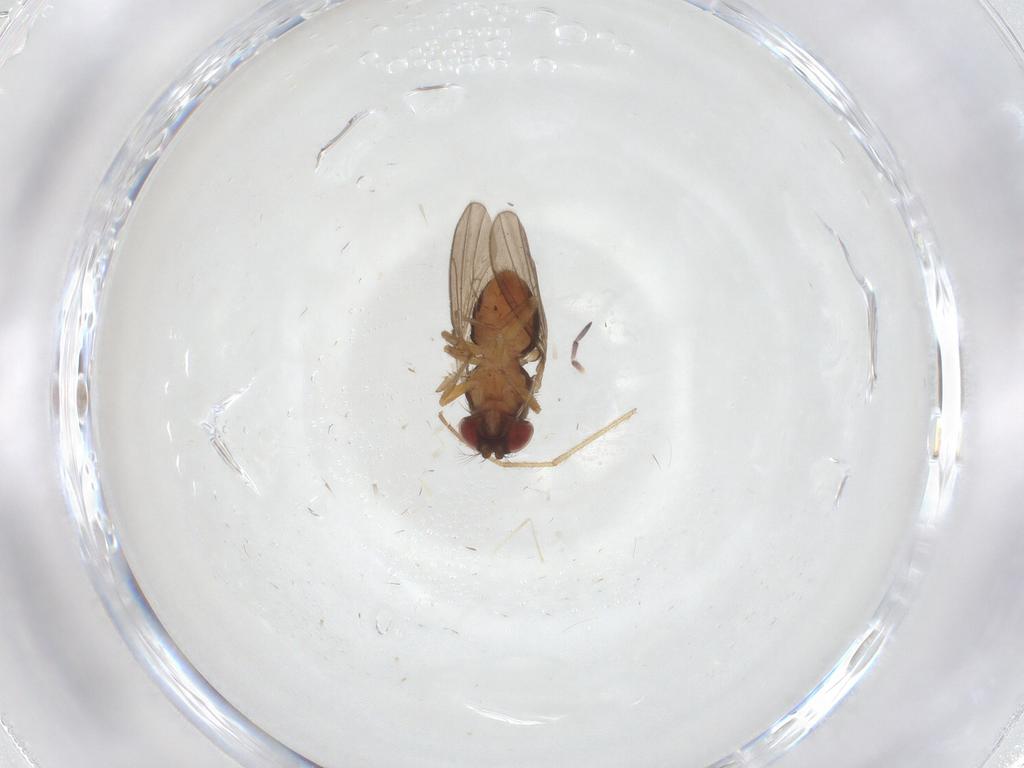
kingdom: Animalia
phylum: Arthropoda
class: Insecta
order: Diptera
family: Drosophilidae
